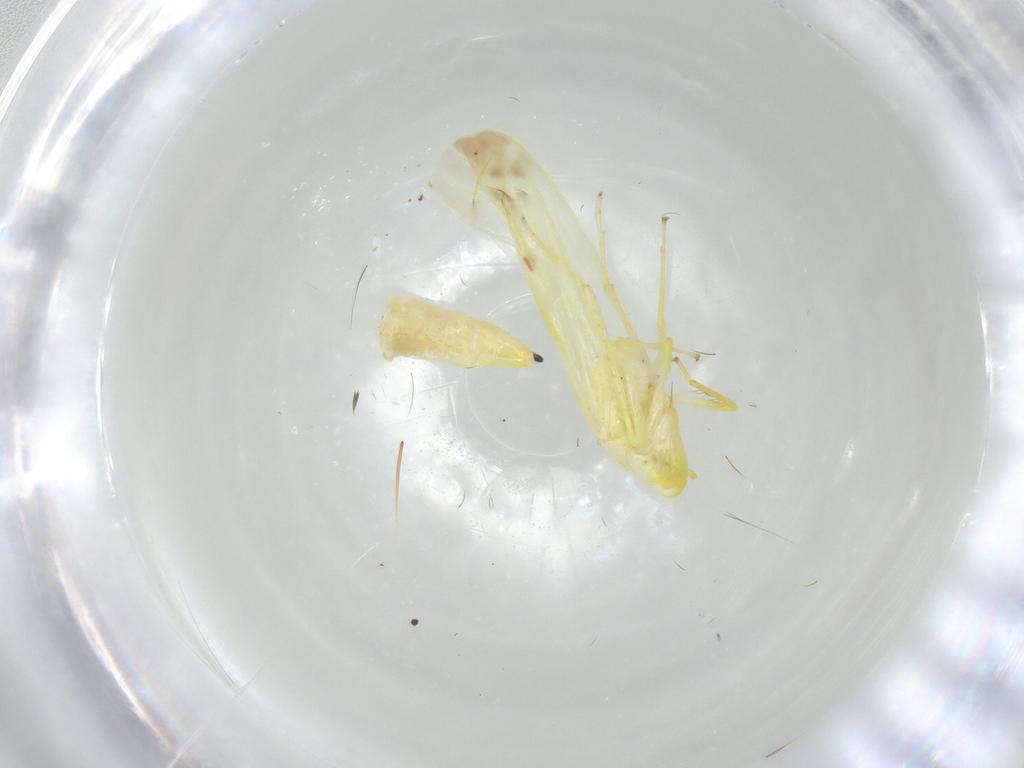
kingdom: Animalia
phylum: Arthropoda
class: Insecta
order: Hemiptera
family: Cicadellidae
